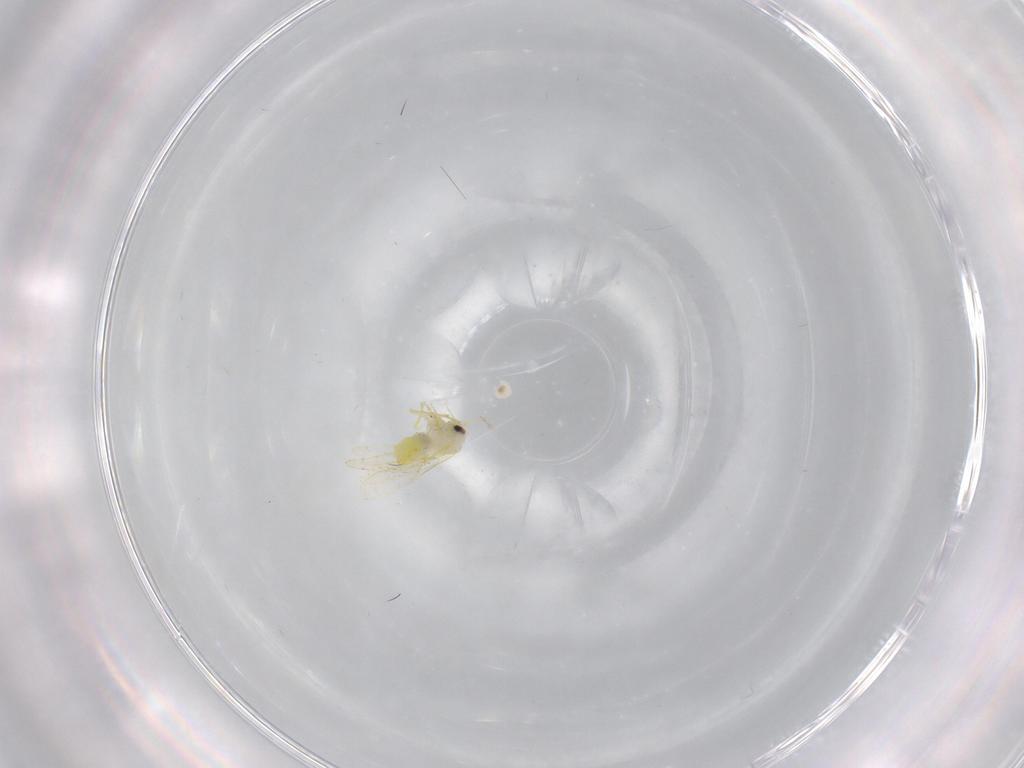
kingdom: Animalia
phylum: Arthropoda
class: Insecta
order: Hemiptera
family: Aleyrodidae
